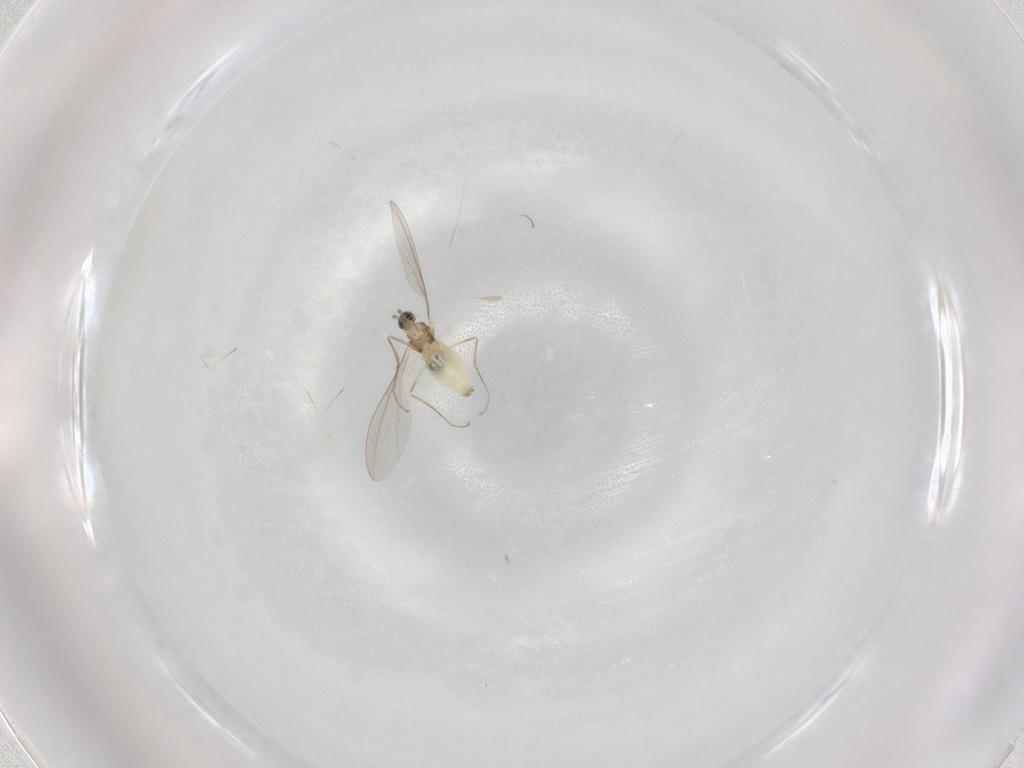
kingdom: Animalia
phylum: Arthropoda
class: Insecta
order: Diptera
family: Cecidomyiidae
